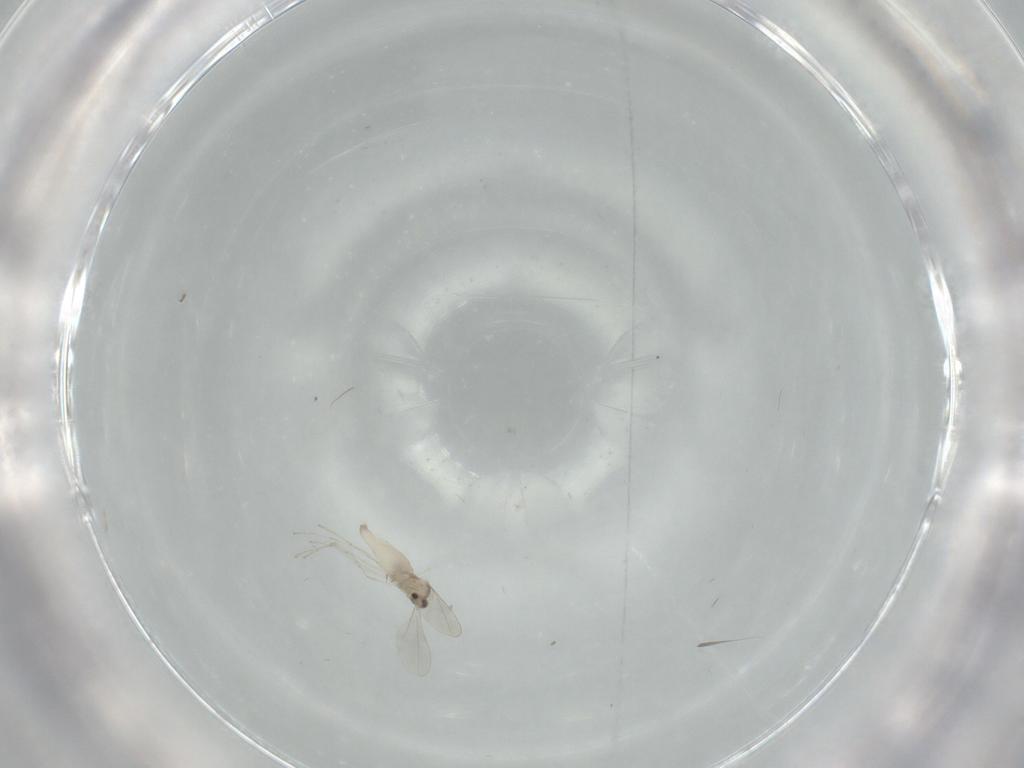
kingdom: Animalia
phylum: Arthropoda
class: Insecta
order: Diptera
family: Cecidomyiidae
